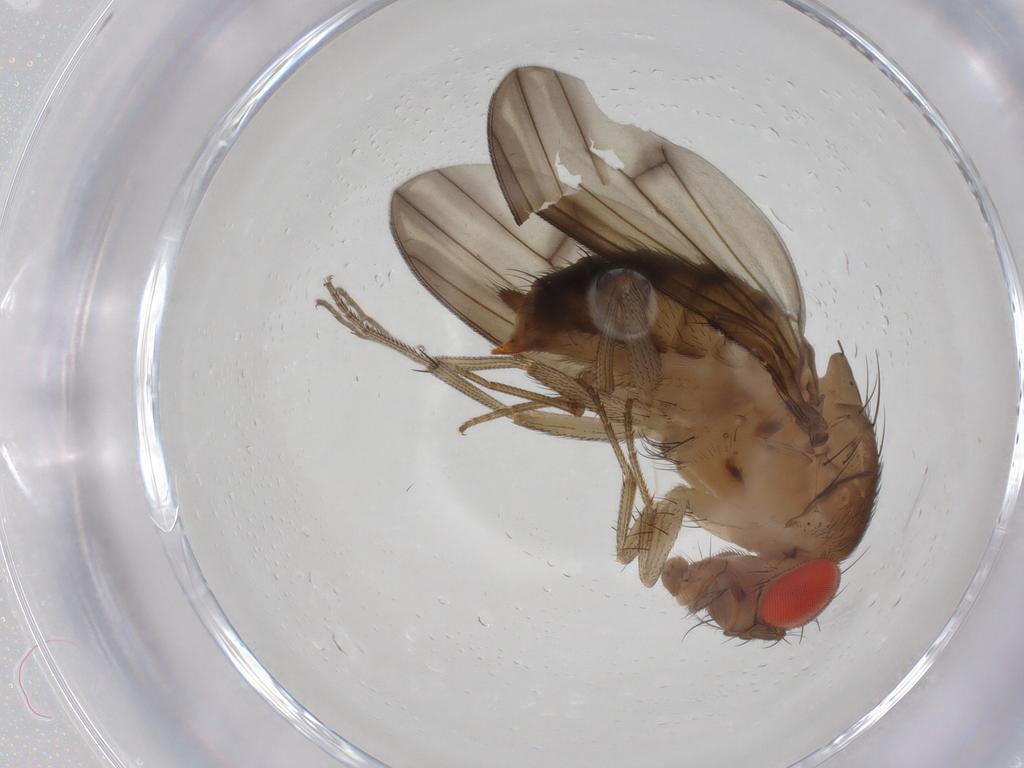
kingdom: Animalia
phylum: Arthropoda
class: Insecta
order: Diptera
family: Drosophilidae
